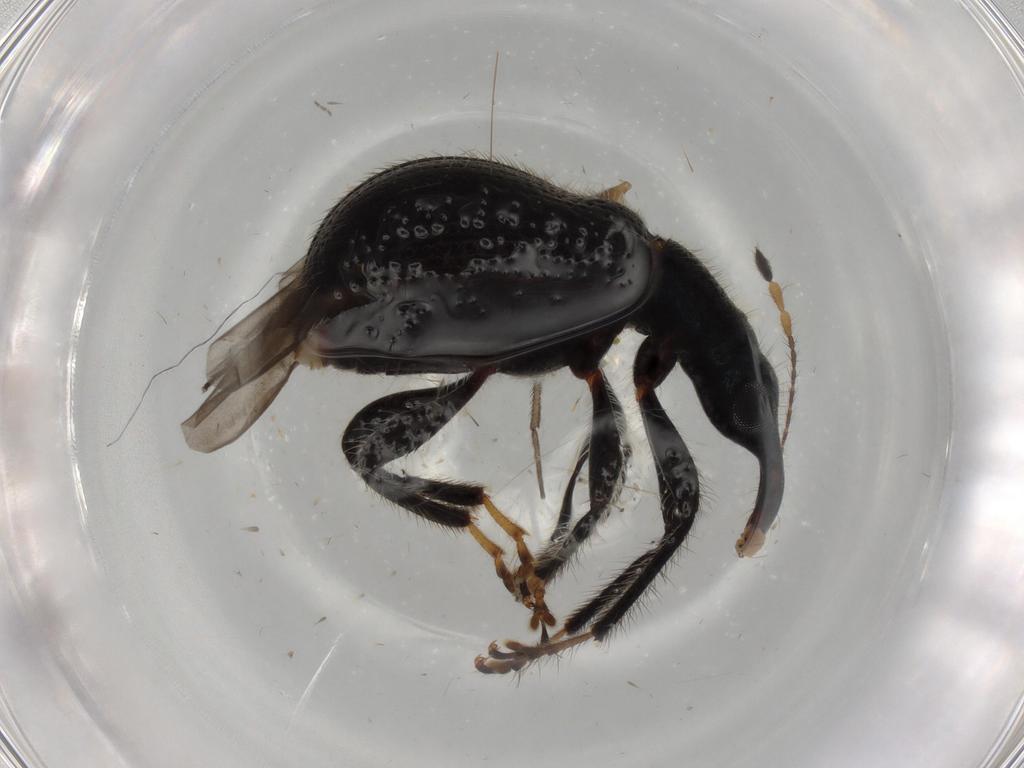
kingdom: Animalia
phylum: Arthropoda
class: Insecta
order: Coleoptera
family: Attelabidae
